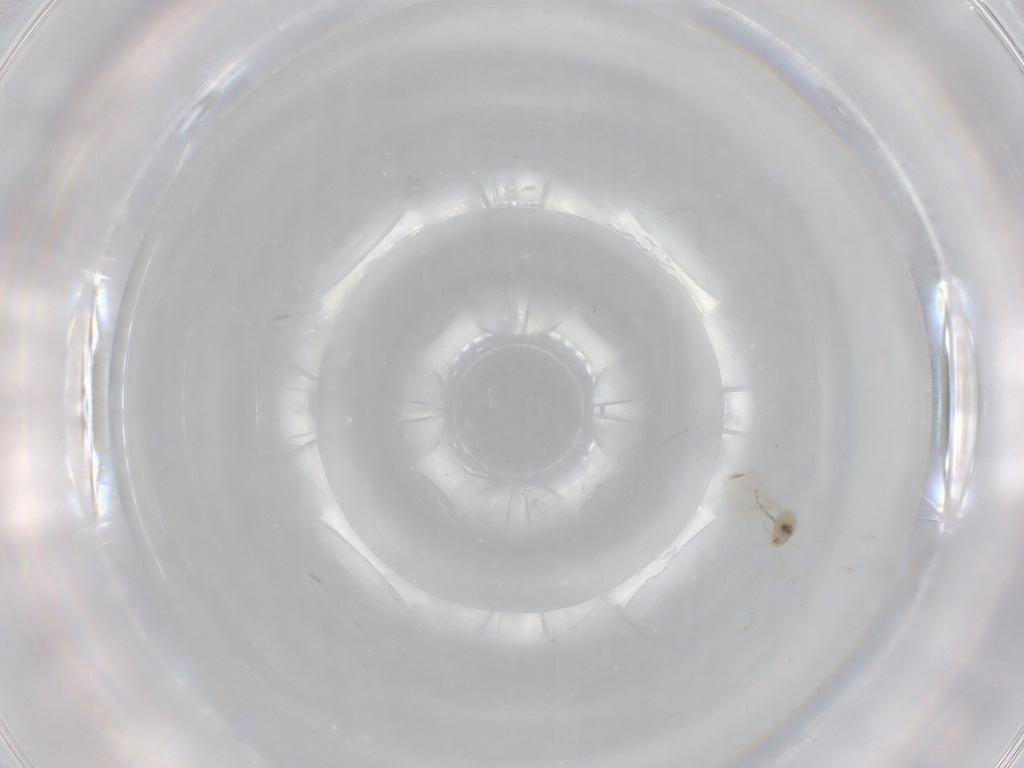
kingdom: Animalia
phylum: Arthropoda
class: Insecta
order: Diptera
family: Cecidomyiidae
